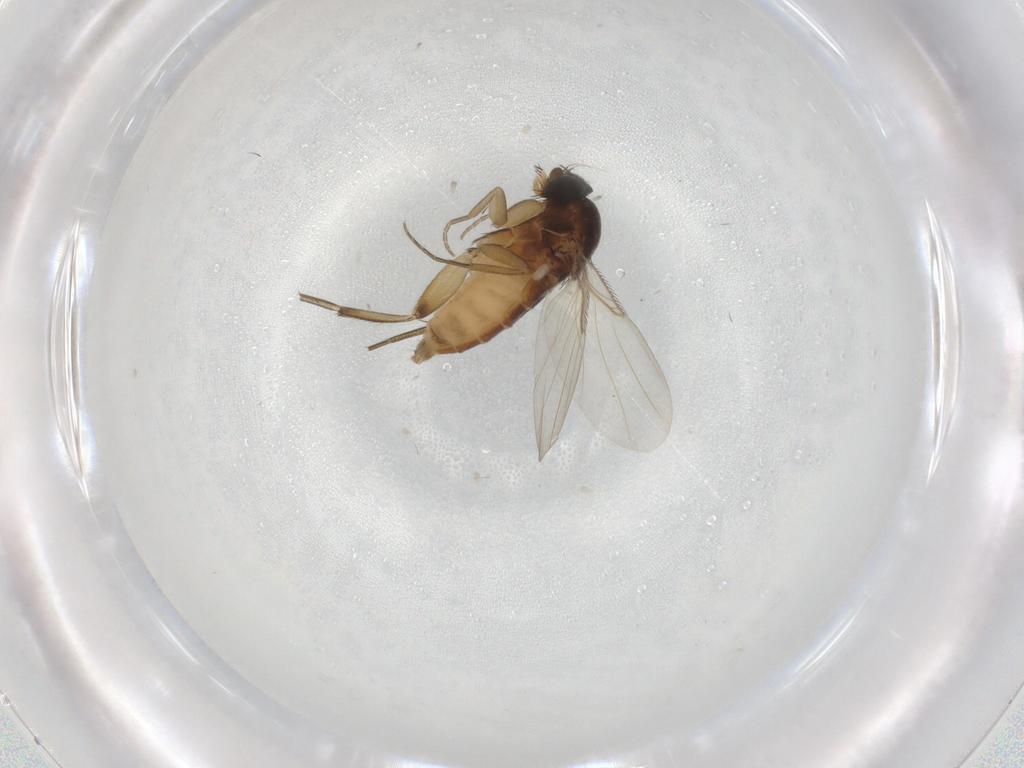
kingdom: Animalia
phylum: Arthropoda
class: Insecta
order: Diptera
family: Phoridae
